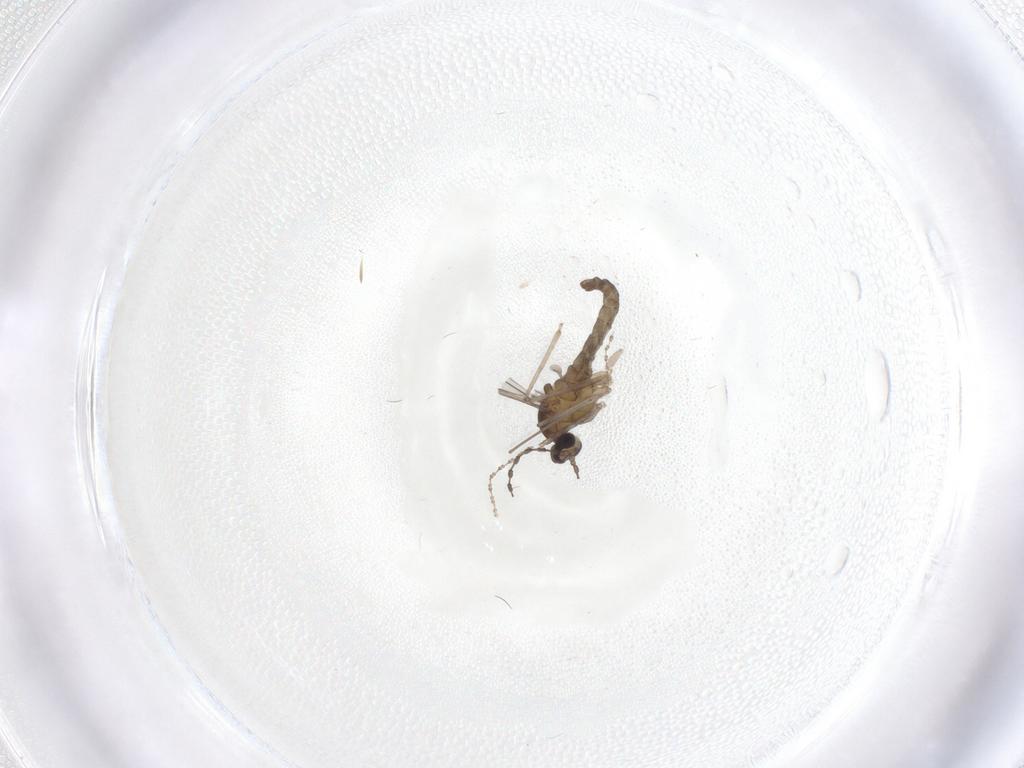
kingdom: Animalia
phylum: Arthropoda
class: Insecta
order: Diptera
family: Cecidomyiidae
